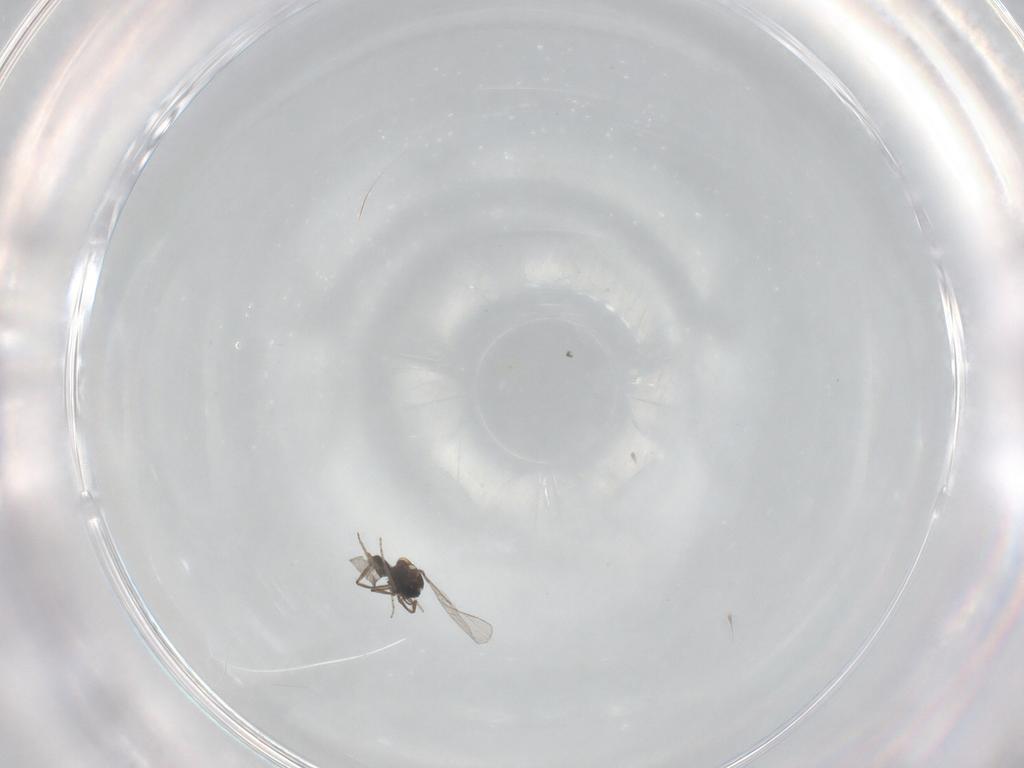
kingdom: Animalia
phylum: Arthropoda
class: Insecta
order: Diptera
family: Ceratopogonidae
